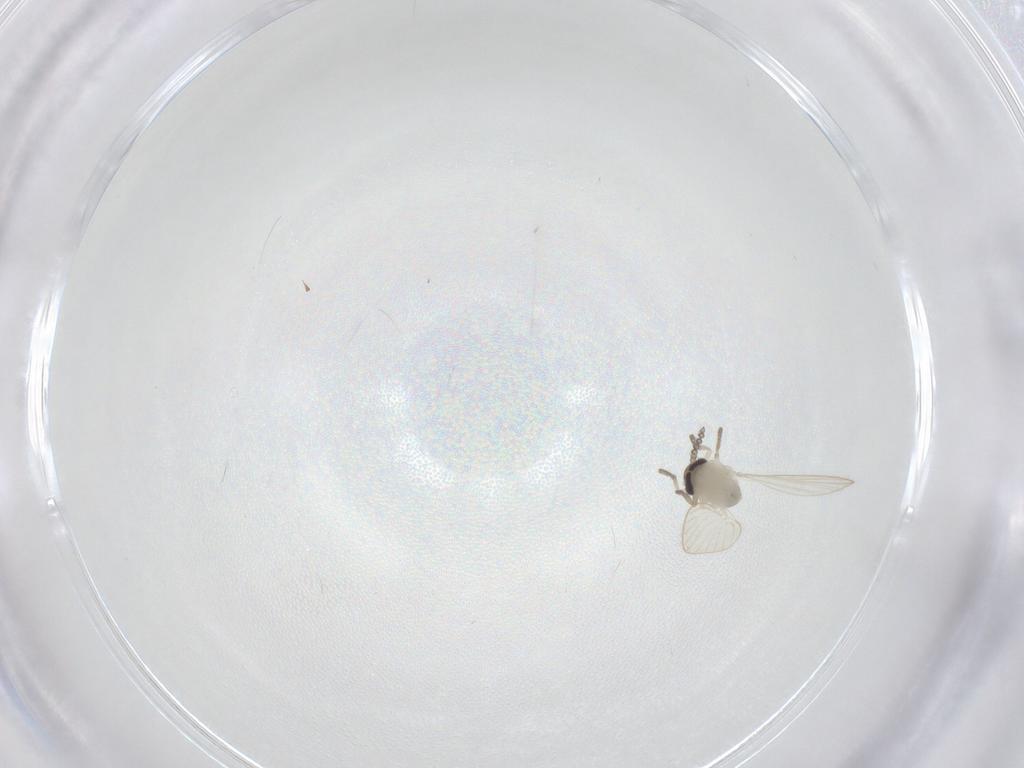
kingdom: Animalia
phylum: Arthropoda
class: Insecta
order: Diptera
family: Psychodidae
